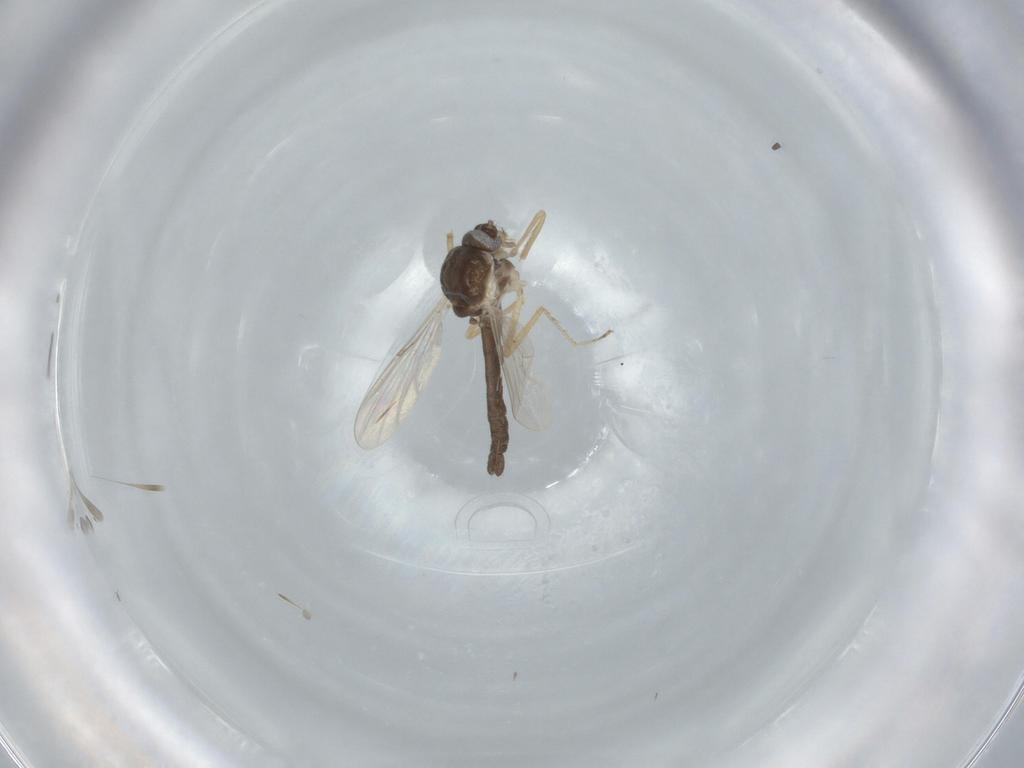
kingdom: Animalia
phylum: Arthropoda
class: Insecta
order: Diptera
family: Ceratopogonidae
